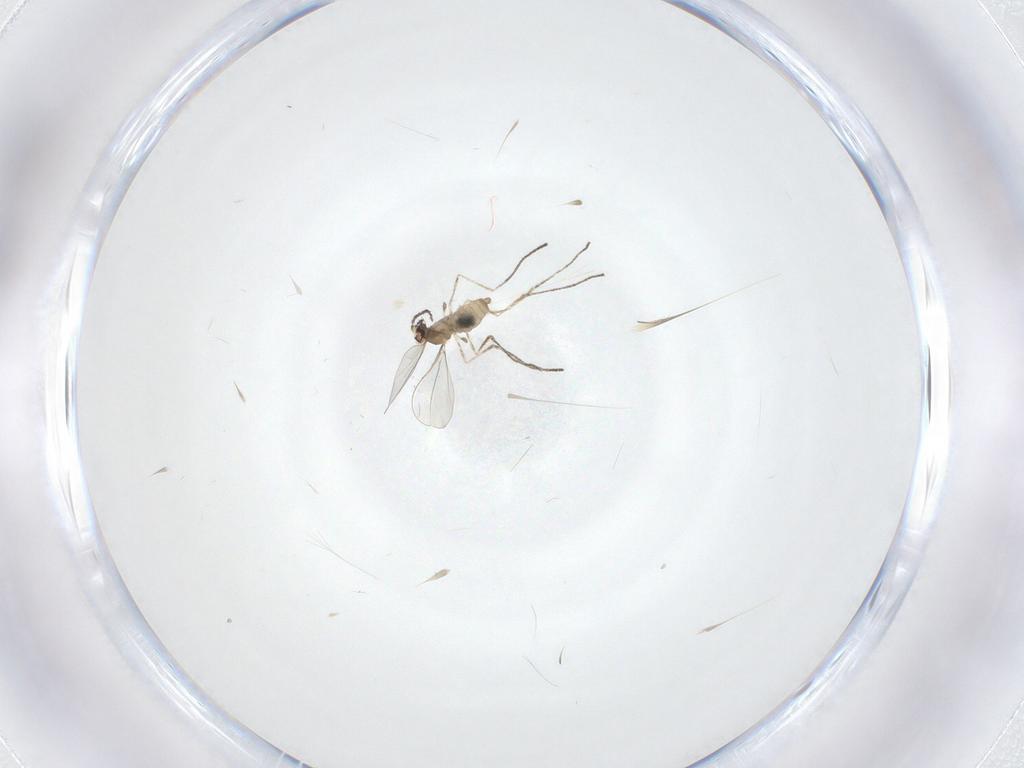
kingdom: Animalia
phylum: Arthropoda
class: Insecta
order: Diptera
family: Cecidomyiidae
